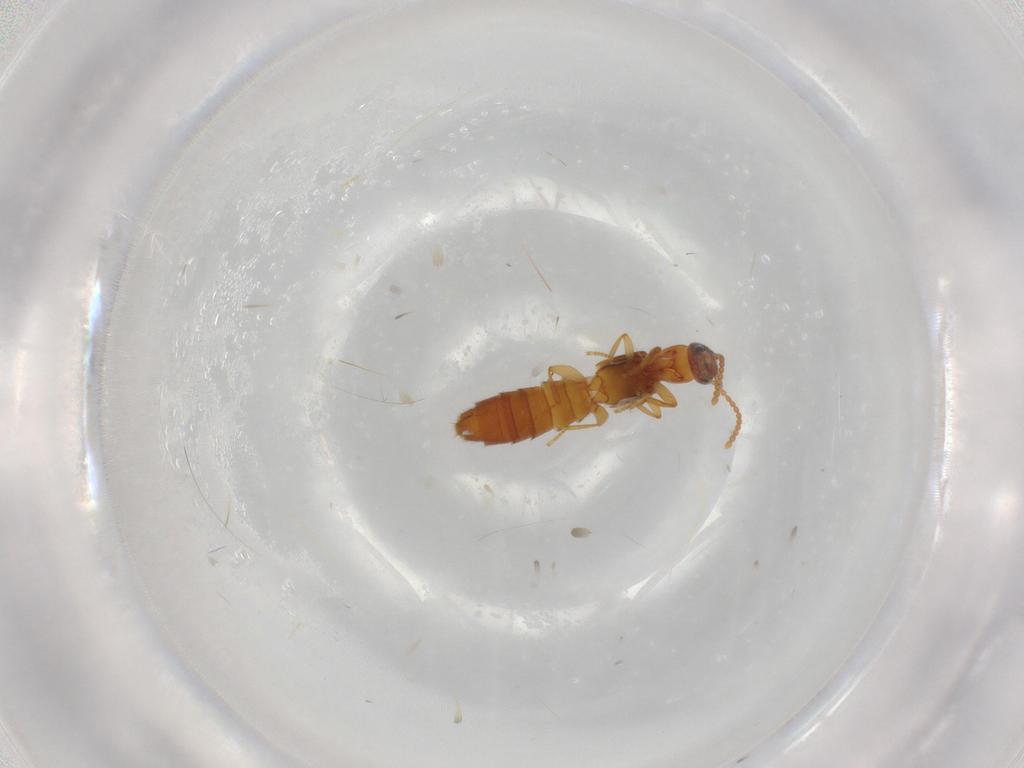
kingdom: Animalia
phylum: Arthropoda
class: Insecta
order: Coleoptera
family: Staphylinidae
